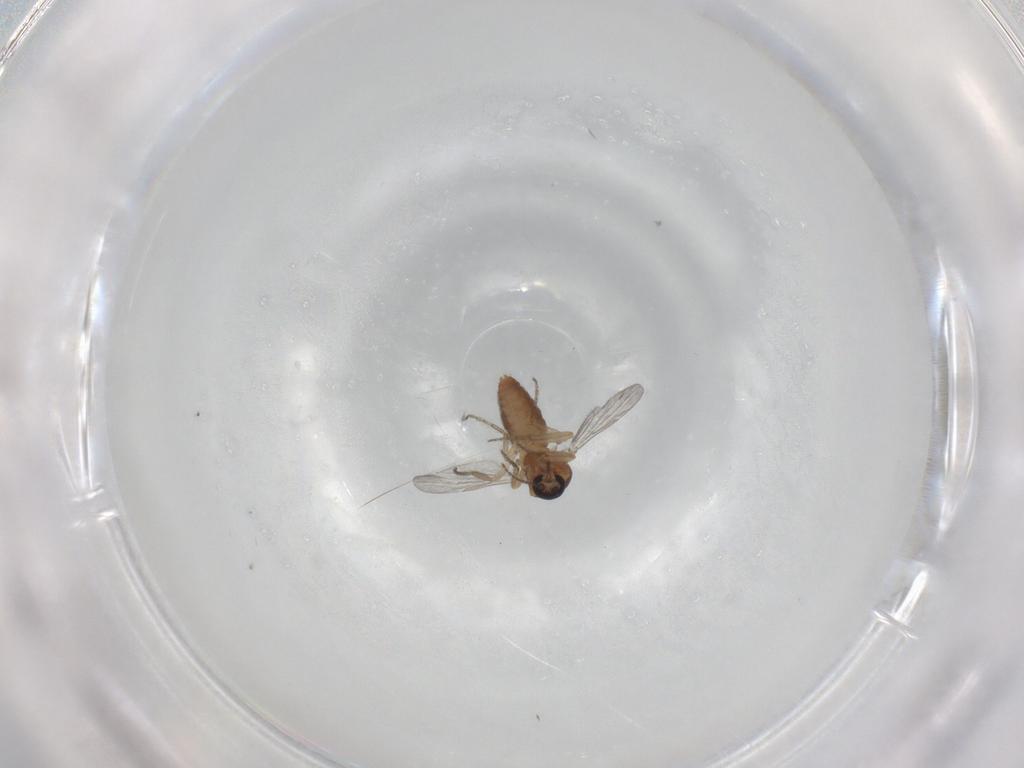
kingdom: Animalia
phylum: Arthropoda
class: Insecta
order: Diptera
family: Ceratopogonidae
